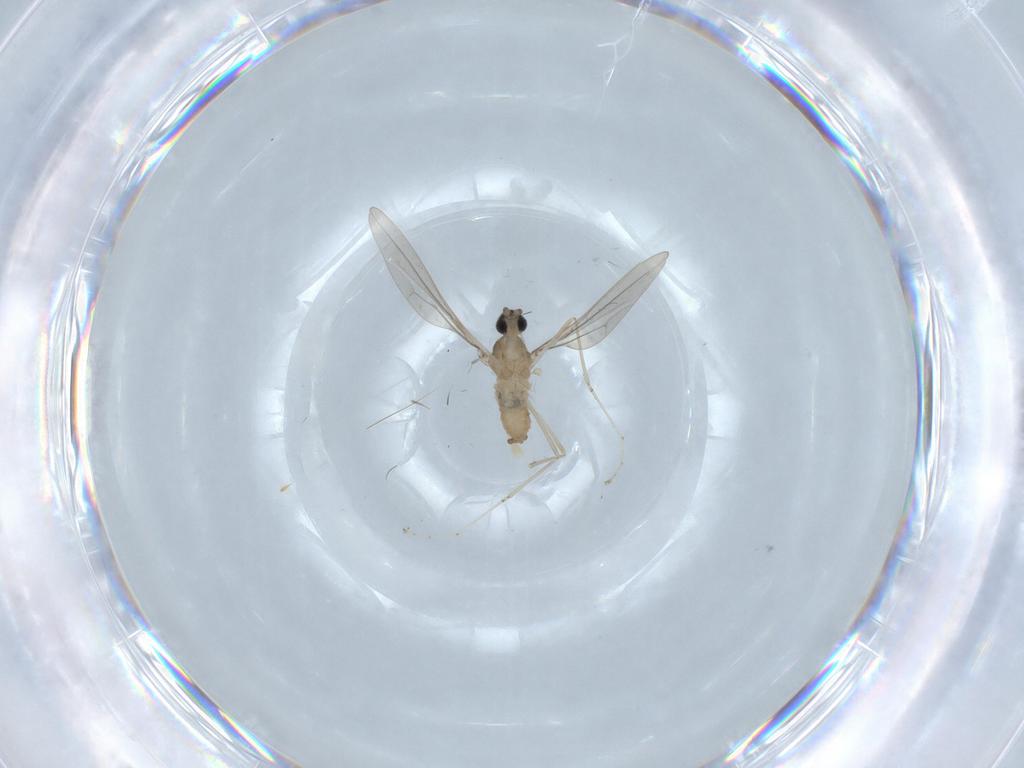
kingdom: Animalia
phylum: Arthropoda
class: Insecta
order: Diptera
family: Cecidomyiidae
